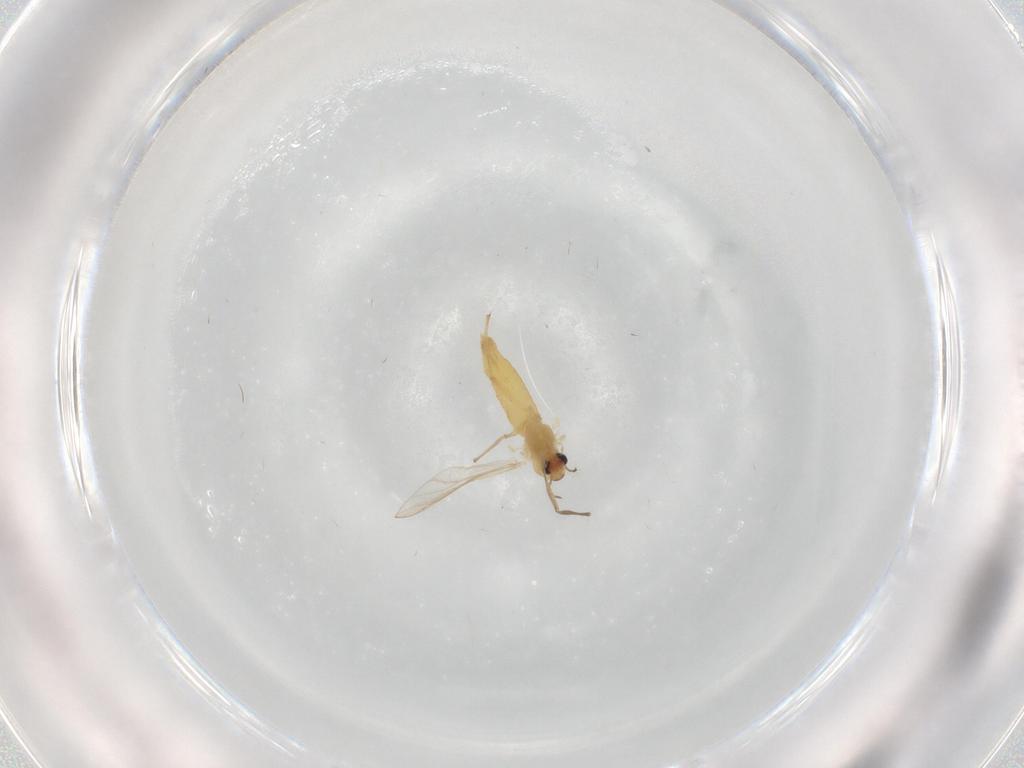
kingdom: Animalia
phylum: Arthropoda
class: Insecta
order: Diptera
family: Chironomidae
